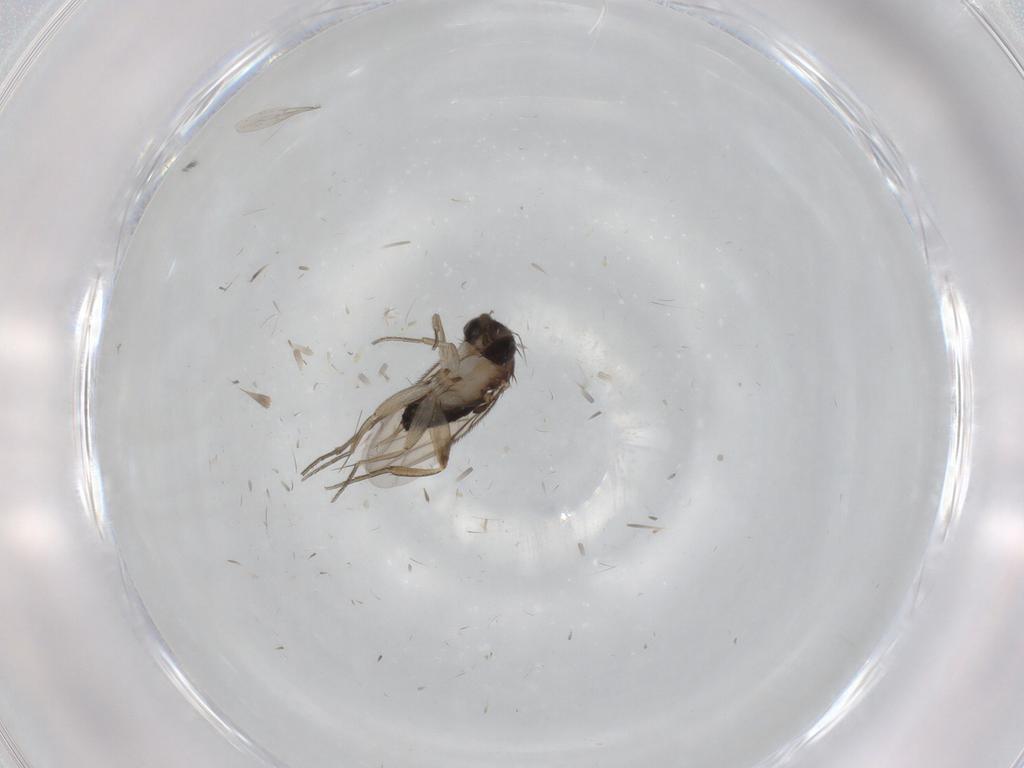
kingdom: Animalia
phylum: Arthropoda
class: Insecta
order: Diptera
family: Phoridae
